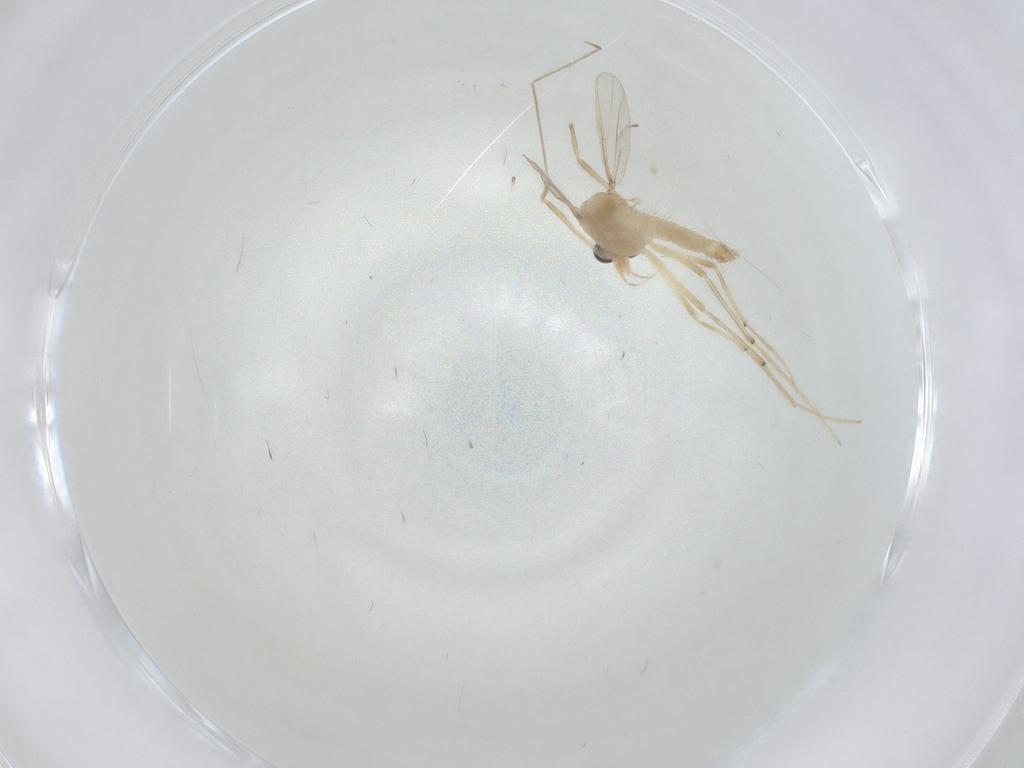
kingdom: Animalia
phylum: Arthropoda
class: Insecta
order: Diptera
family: Chironomidae
